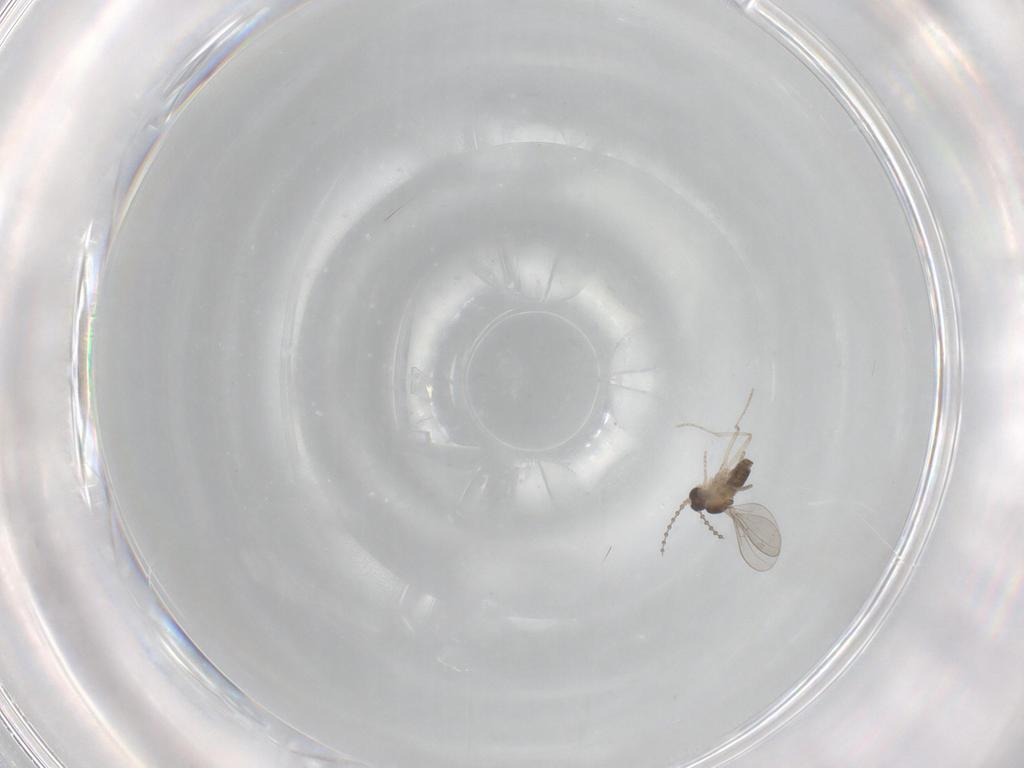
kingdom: Animalia
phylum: Arthropoda
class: Insecta
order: Diptera
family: Cecidomyiidae
